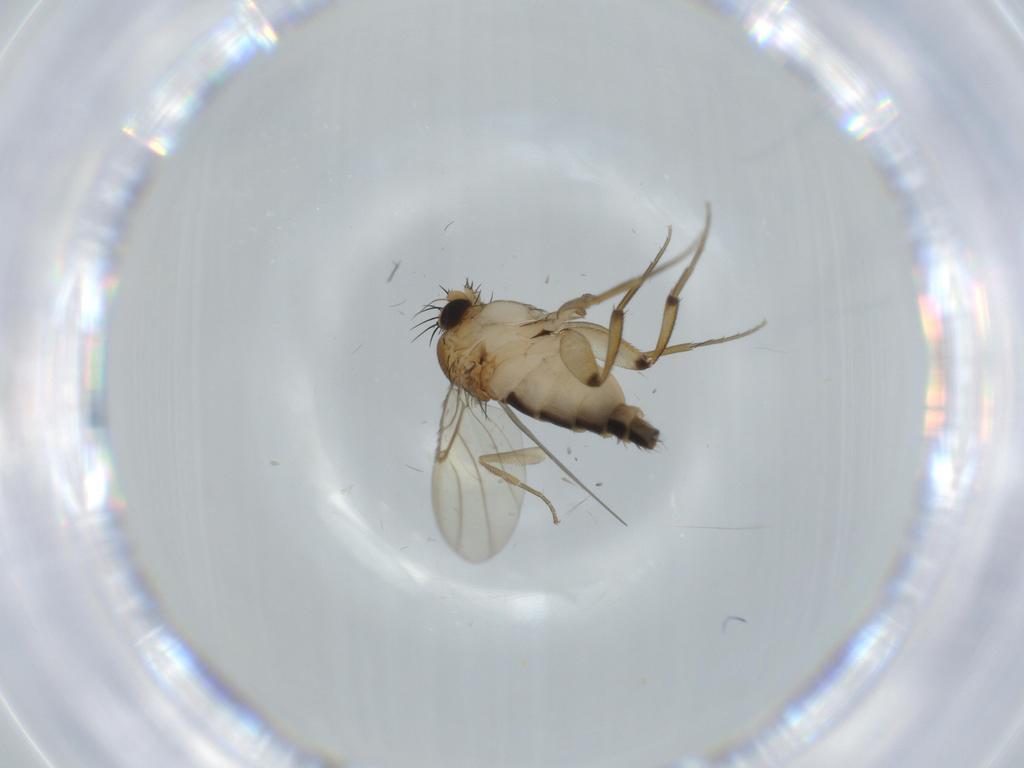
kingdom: Animalia
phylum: Arthropoda
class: Insecta
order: Diptera
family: Phoridae
